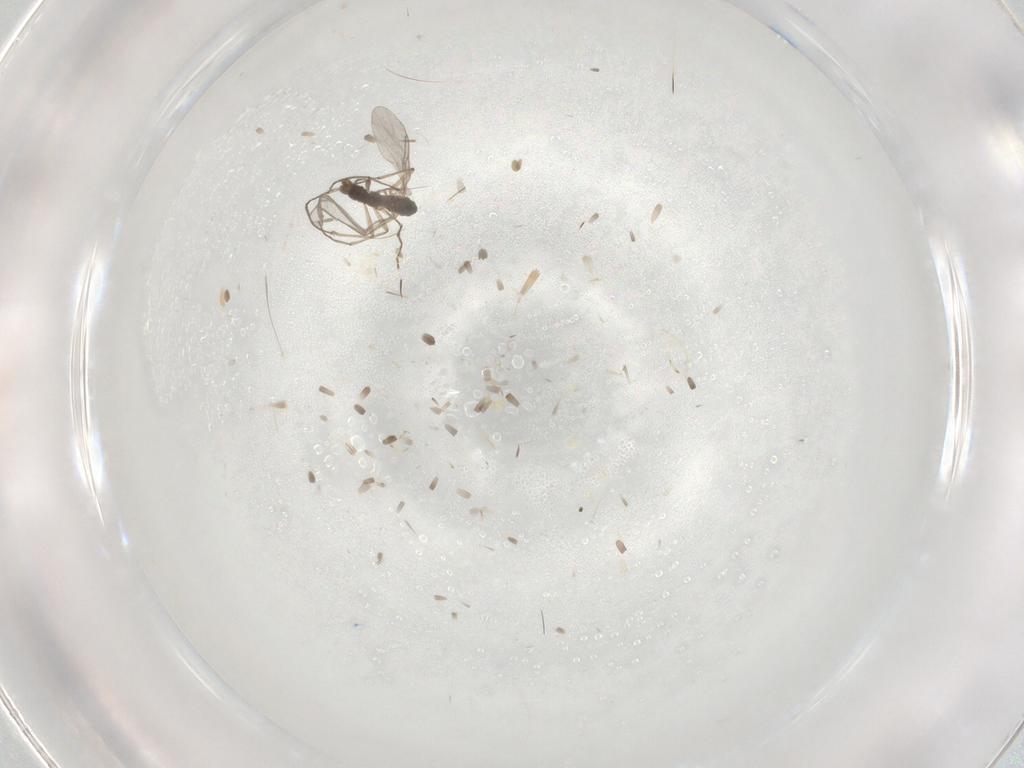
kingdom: Animalia
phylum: Arthropoda
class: Insecta
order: Diptera
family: Sciaridae
